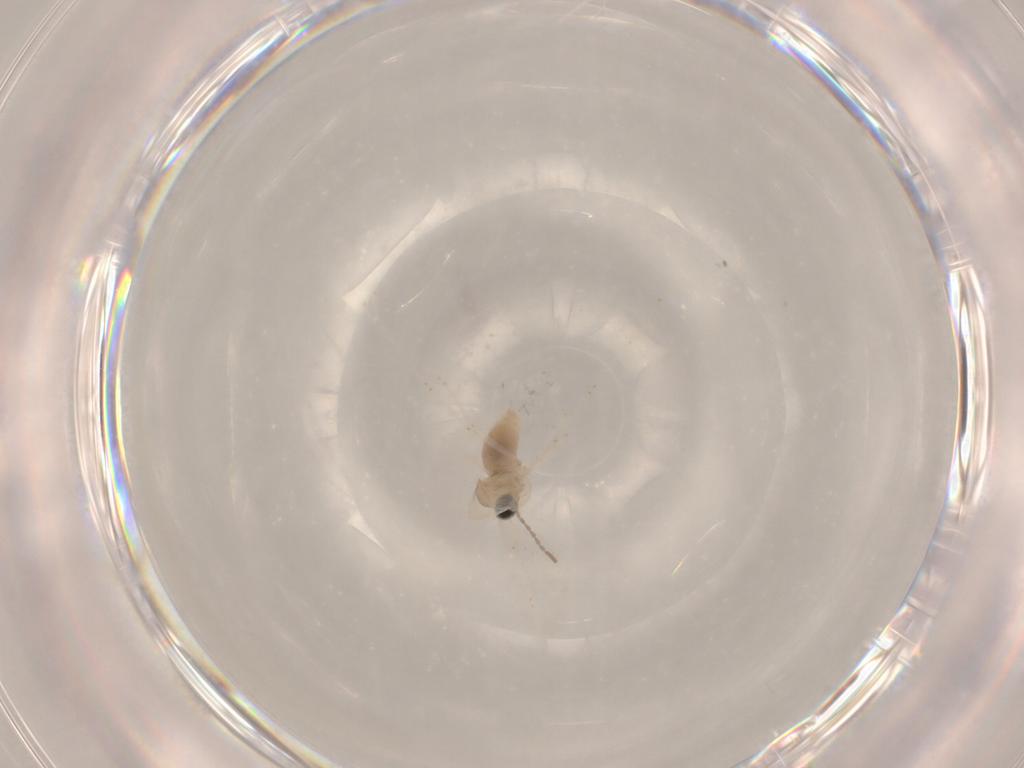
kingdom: Animalia
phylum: Arthropoda
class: Insecta
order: Diptera
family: Cecidomyiidae
